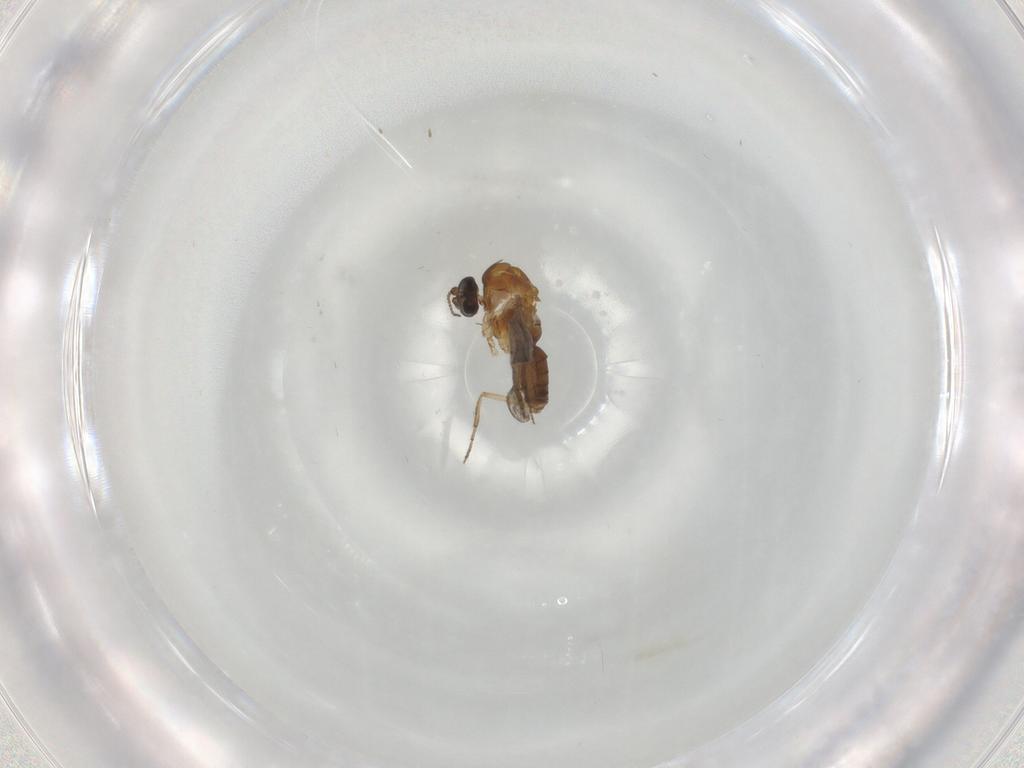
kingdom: Animalia
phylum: Arthropoda
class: Insecta
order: Diptera
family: Ceratopogonidae
